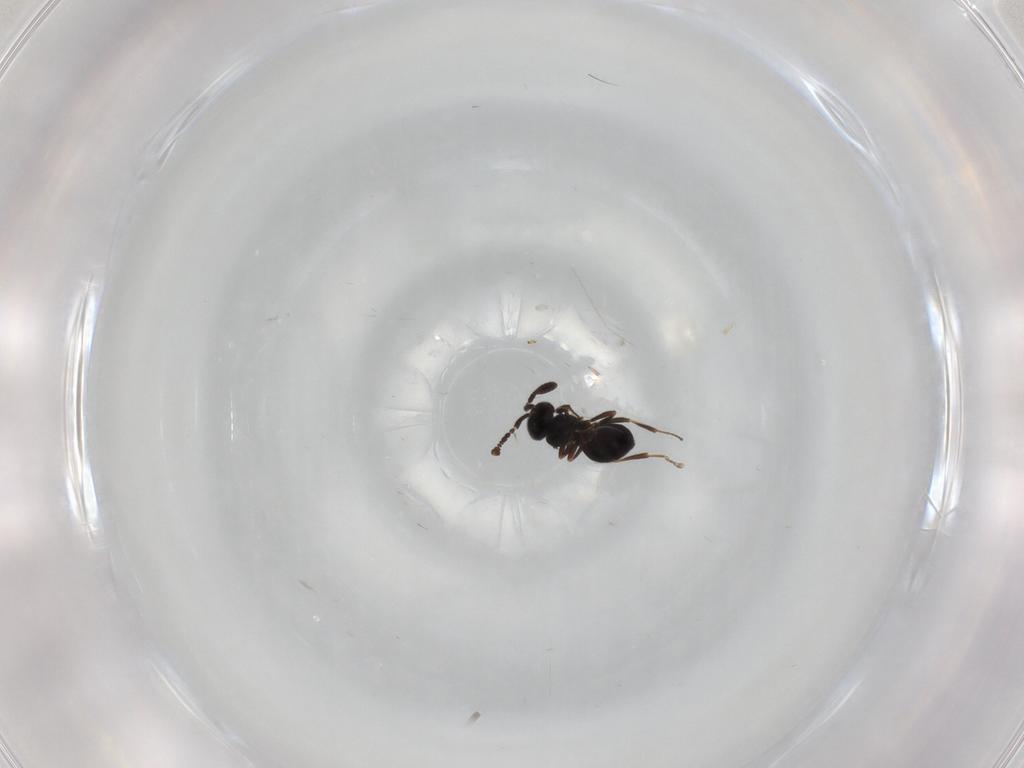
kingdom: Animalia
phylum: Arthropoda
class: Insecta
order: Hymenoptera
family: Scelionidae
